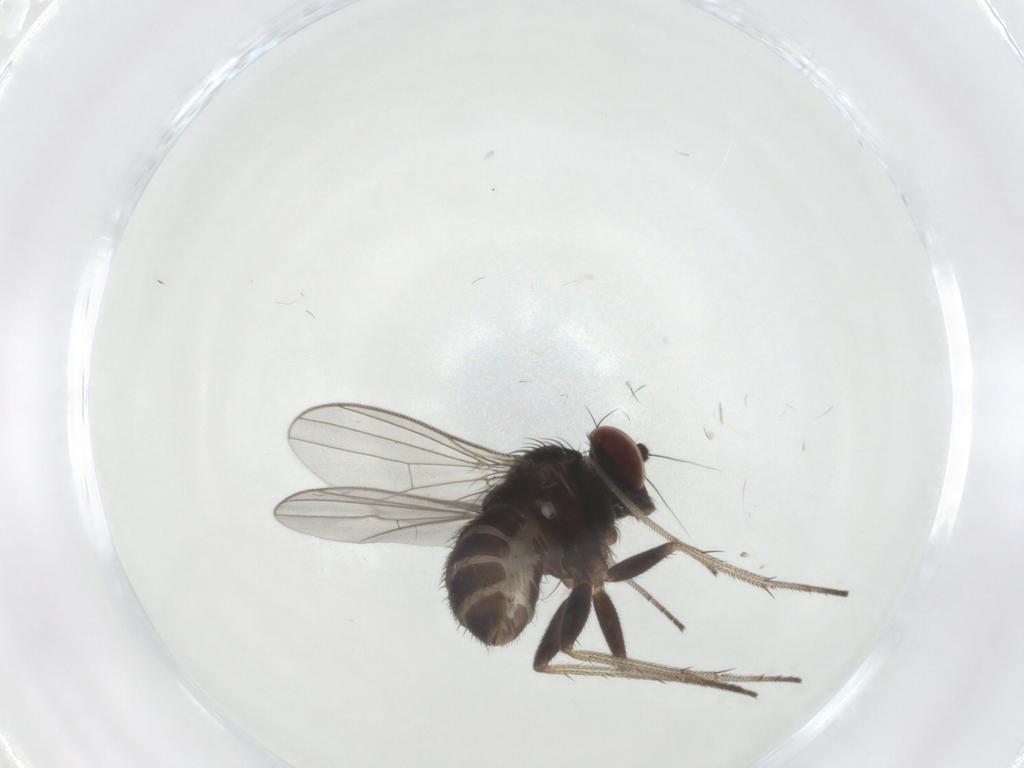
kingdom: Animalia
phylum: Arthropoda
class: Insecta
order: Diptera
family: Dolichopodidae
